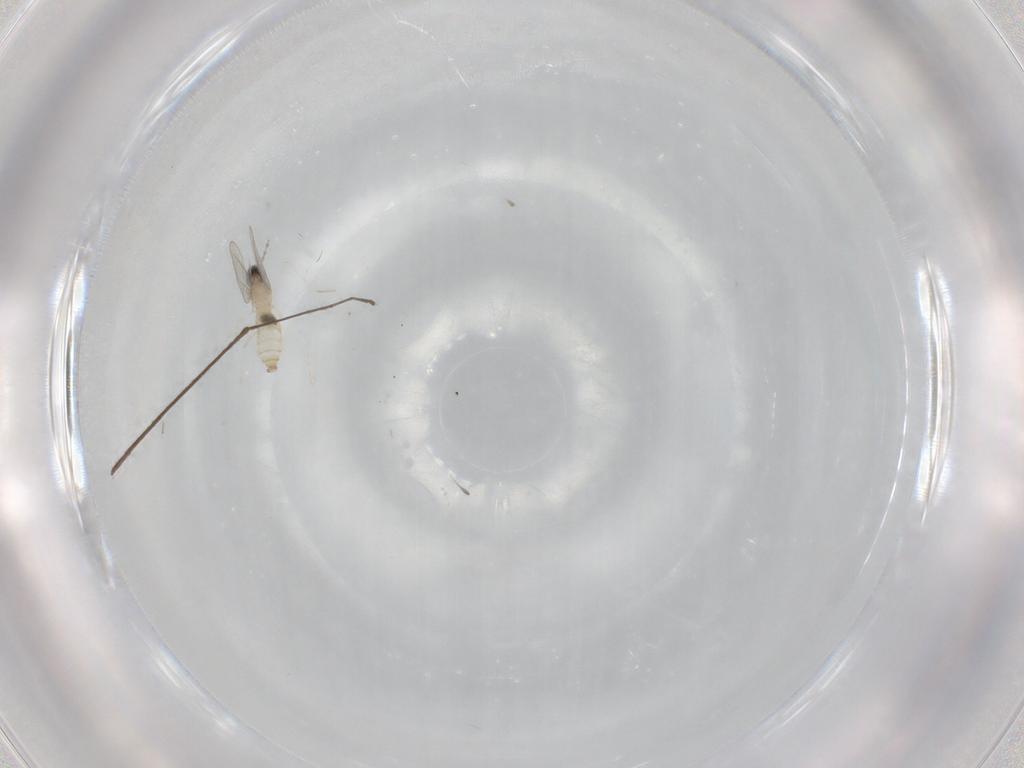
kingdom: Animalia
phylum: Arthropoda
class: Insecta
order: Diptera
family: Cecidomyiidae
